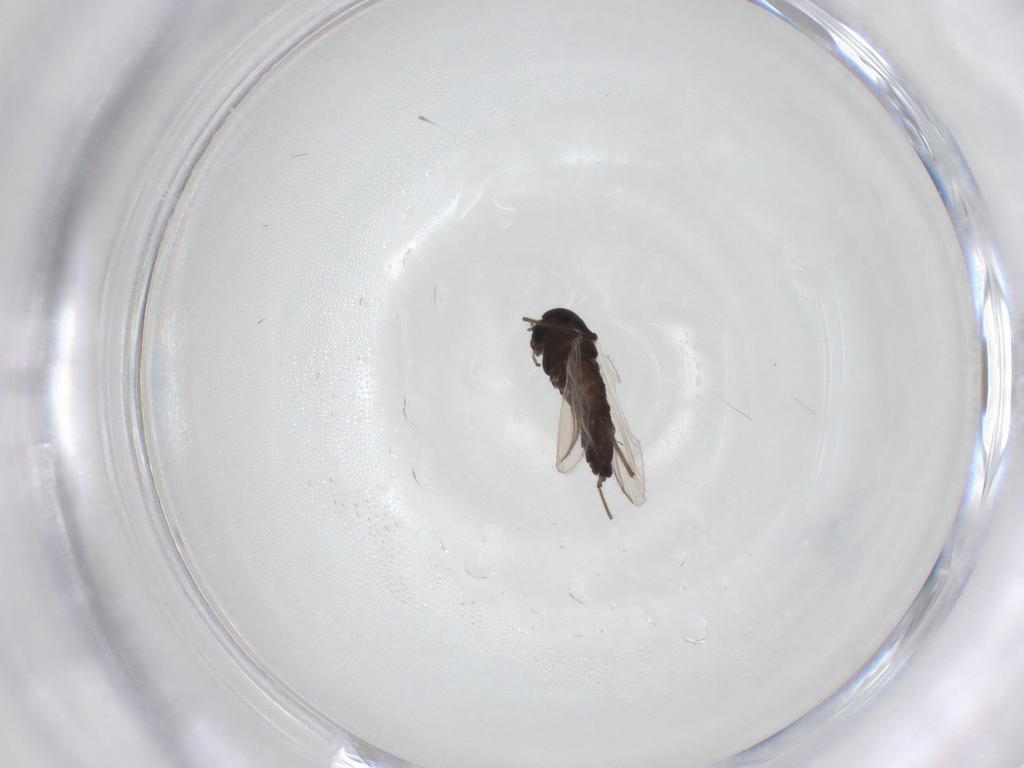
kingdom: Animalia
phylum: Arthropoda
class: Insecta
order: Diptera
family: Chironomidae
